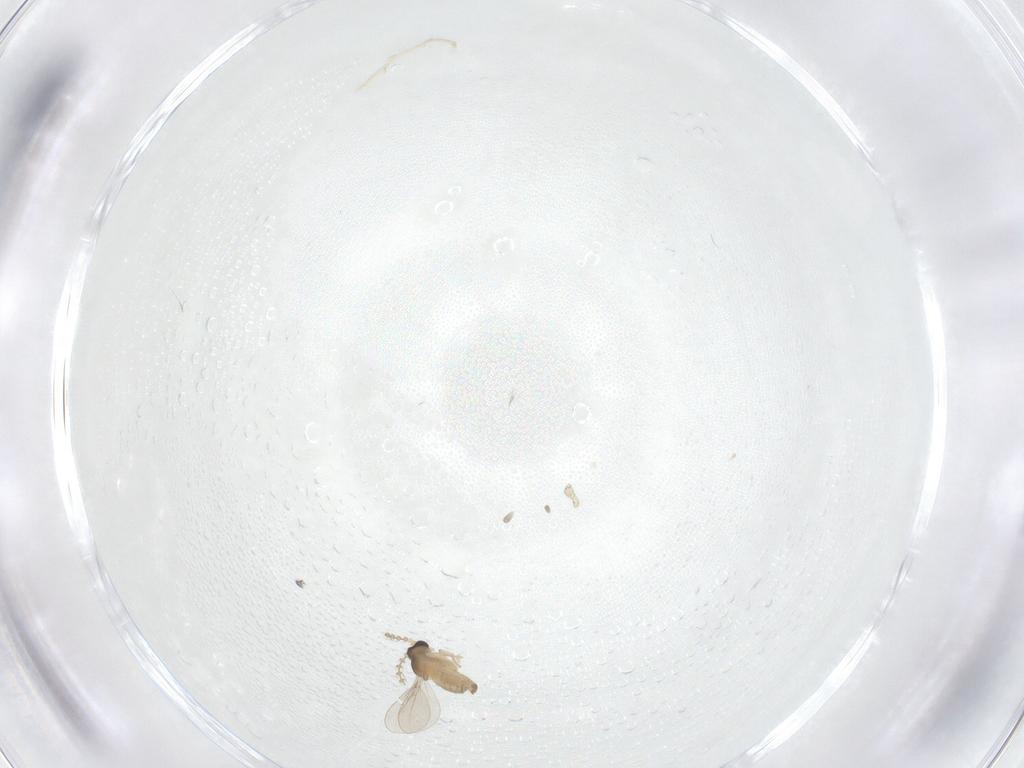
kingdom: Animalia
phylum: Arthropoda
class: Insecta
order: Diptera
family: Cecidomyiidae
